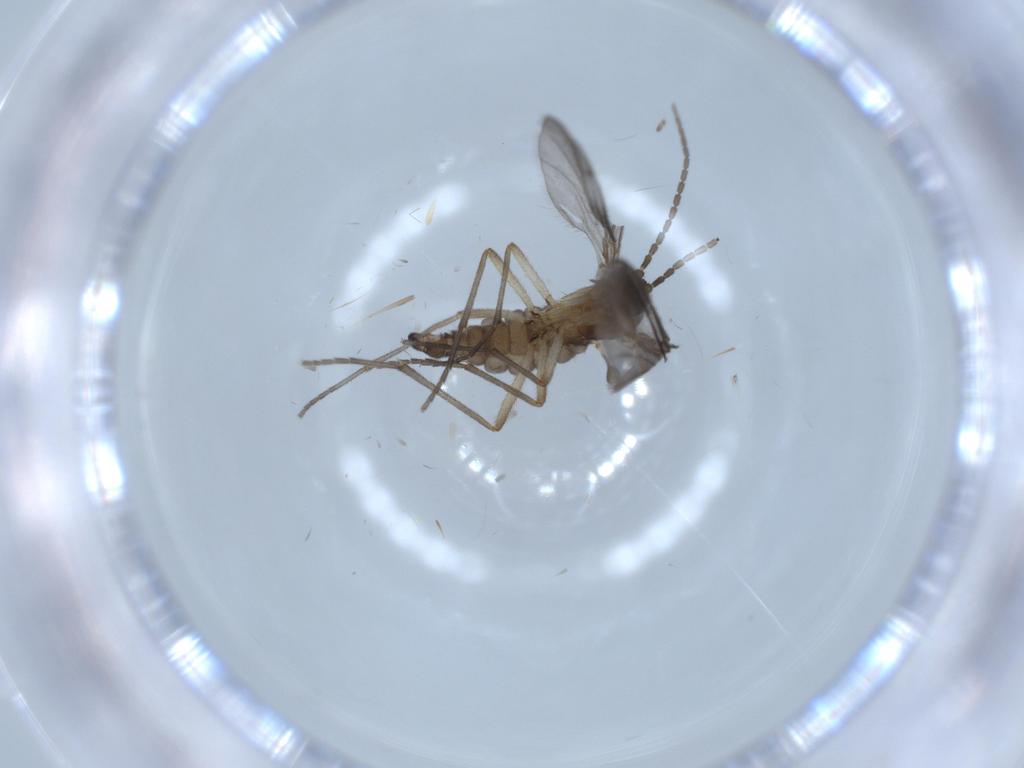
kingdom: Animalia
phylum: Arthropoda
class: Insecta
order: Diptera
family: Sciaridae
